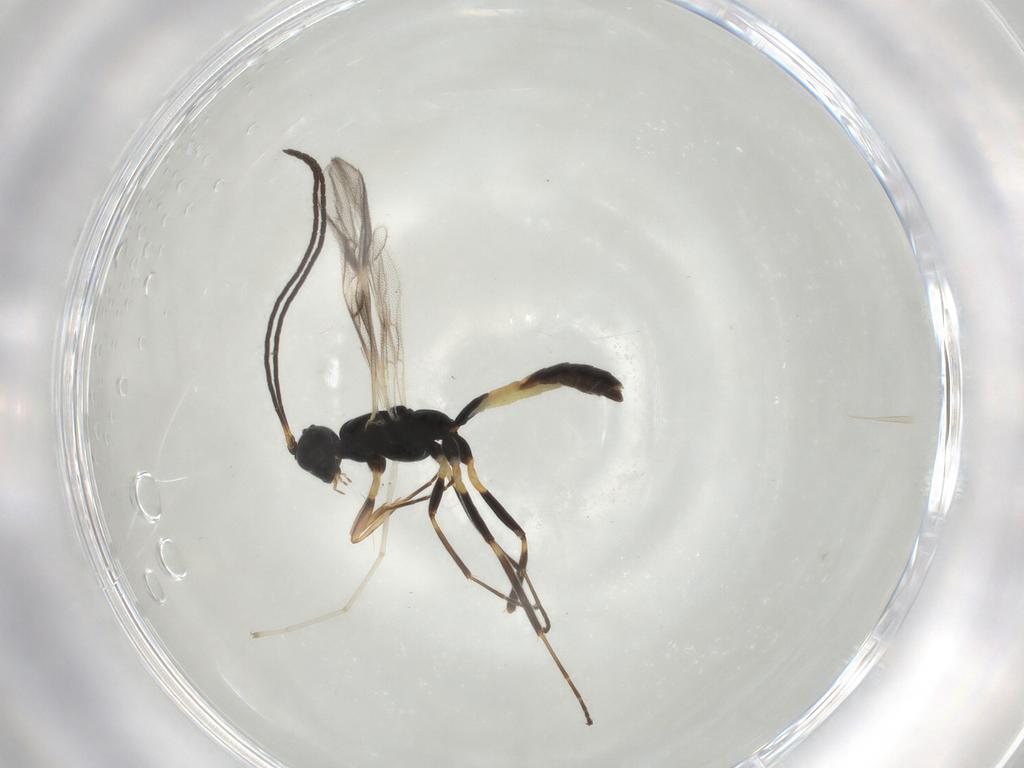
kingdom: Animalia
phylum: Arthropoda
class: Insecta
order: Hymenoptera
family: Ichneumonidae
